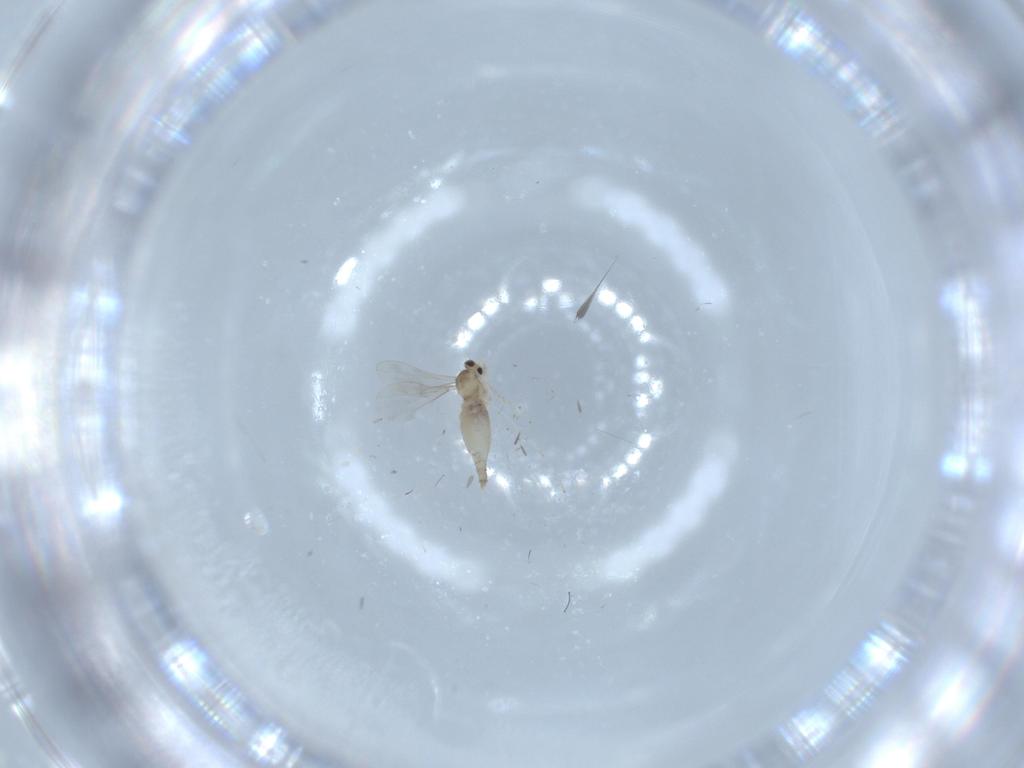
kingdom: Animalia
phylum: Arthropoda
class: Insecta
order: Diptera
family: Cecidomyiidae
